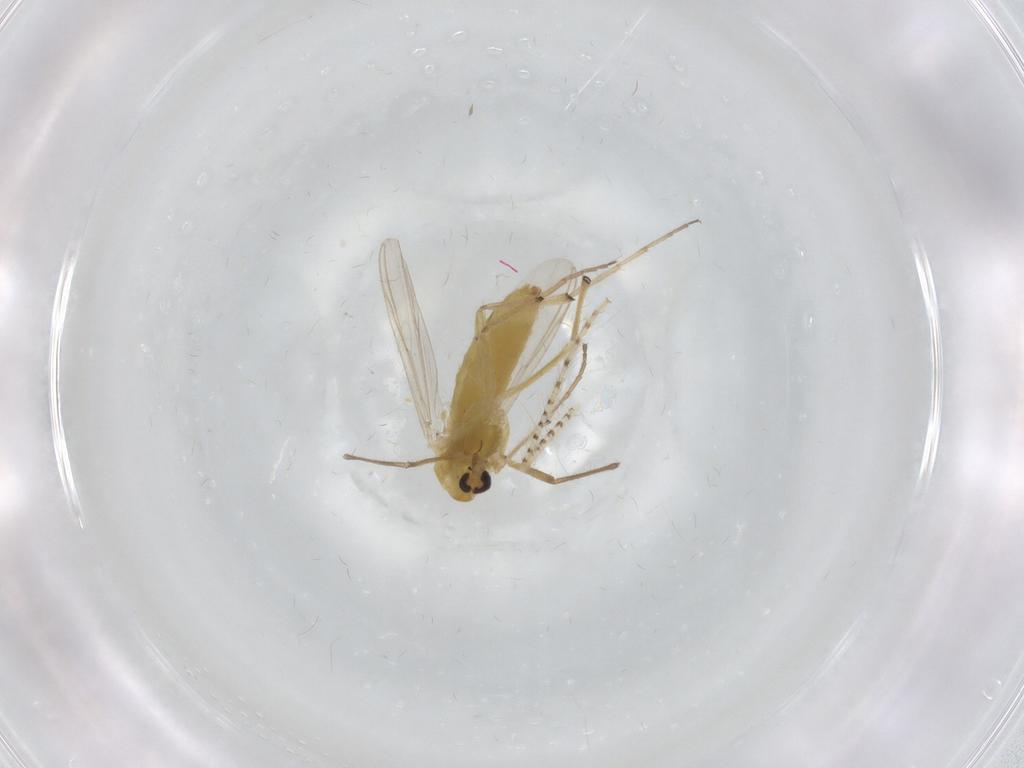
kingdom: Animalia
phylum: Arthropoda
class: Insecta
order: Diptera
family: Chironomidae
